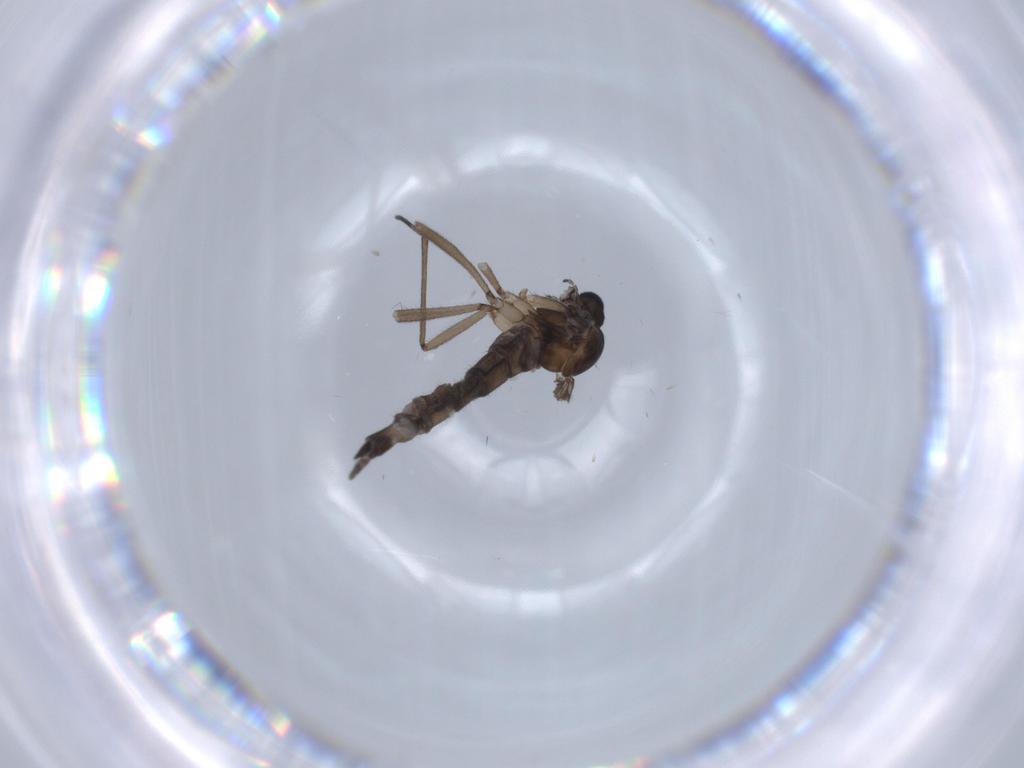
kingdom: Animalia
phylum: Arthropoda
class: Insecta
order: Diptera
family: Sciaridae
